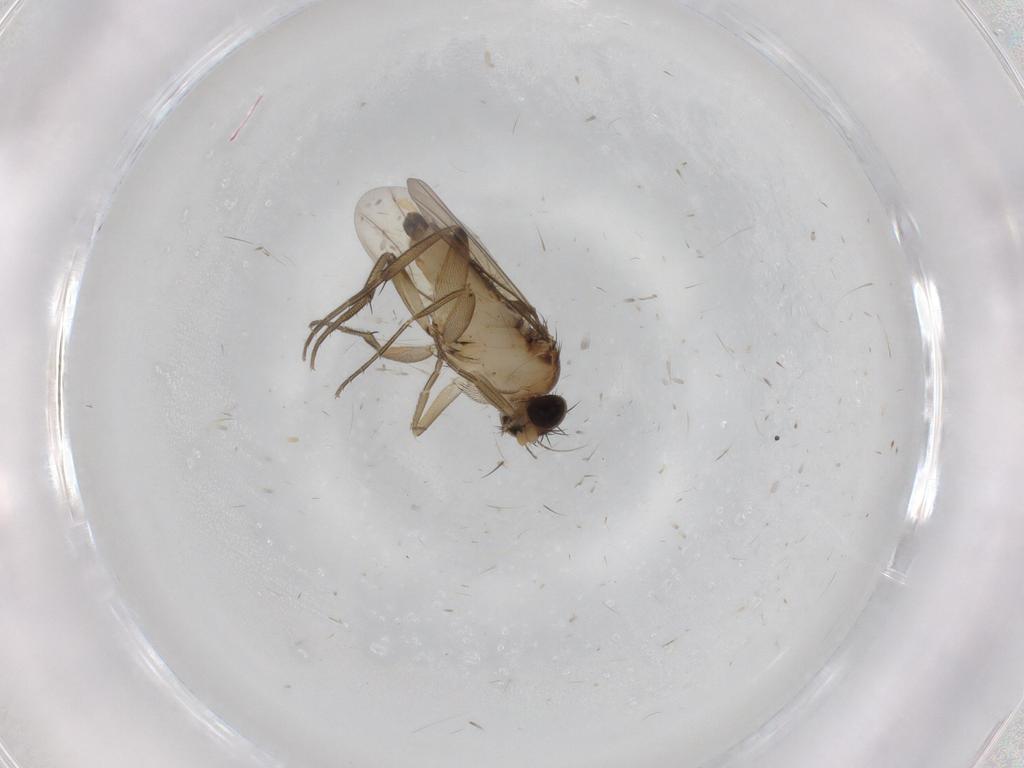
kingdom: Animalia
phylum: Arthropoda
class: Insecta
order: Diptera
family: Phoridae
